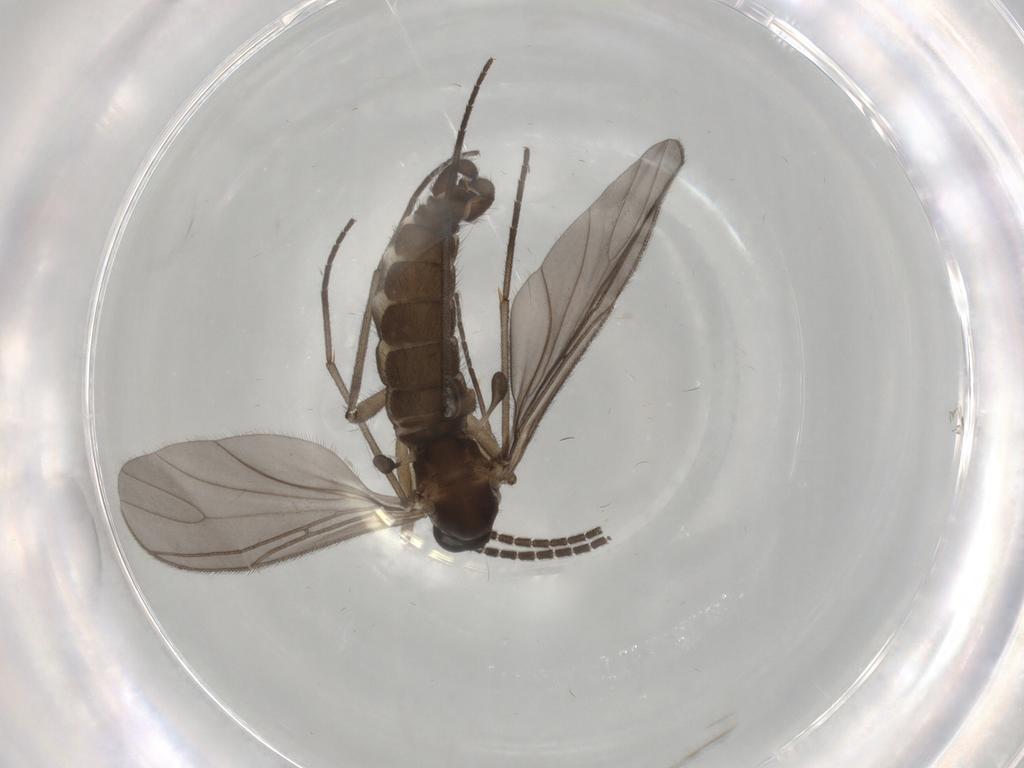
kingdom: Animalia
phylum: Arthropoda
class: Insecta
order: Diptera
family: Sciaridae
